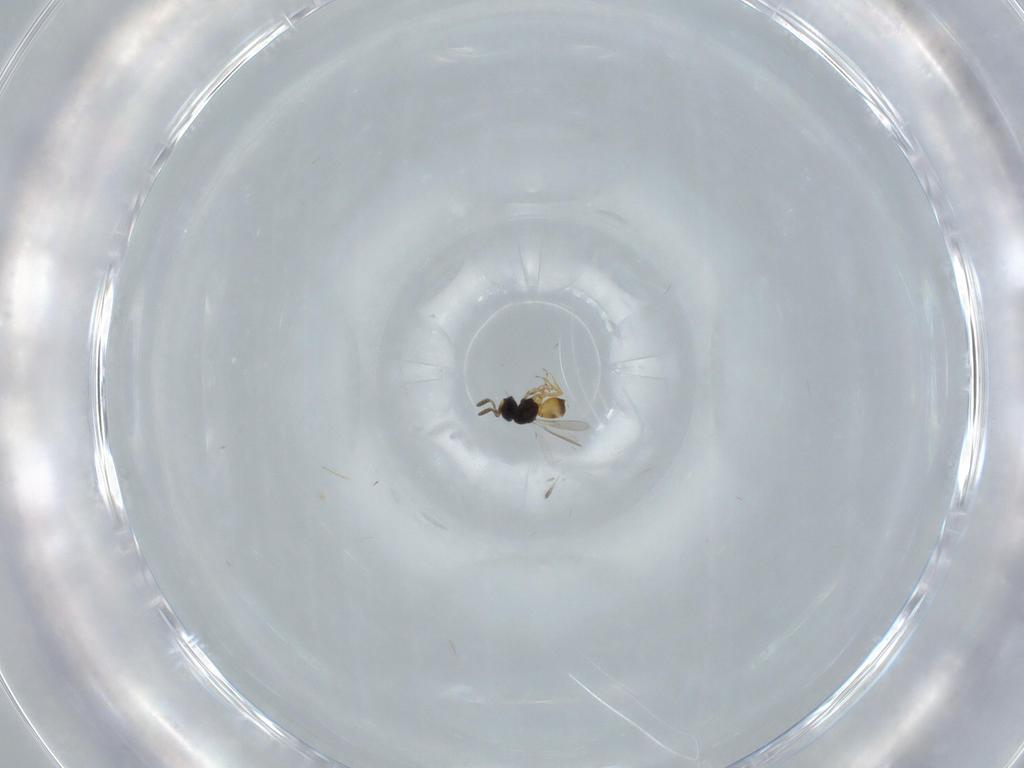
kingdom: Animalia
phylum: Arthropoda
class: Insecta
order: Hymenoptera
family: Scelionidae
